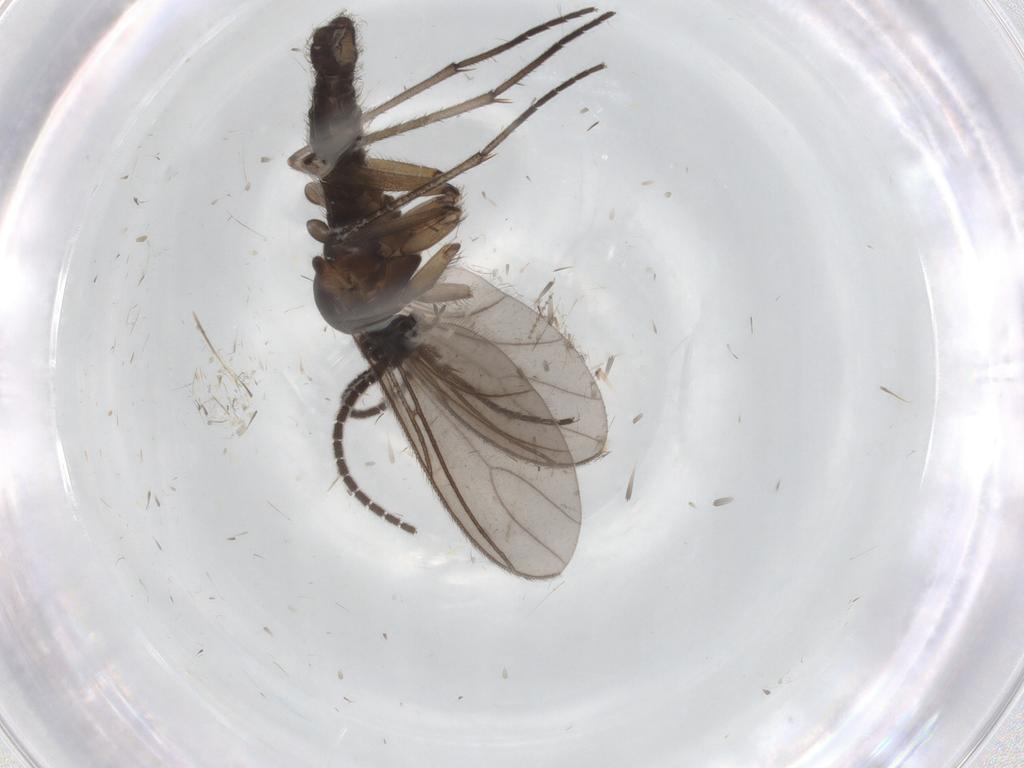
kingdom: Animalia
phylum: Arthropoda
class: Insecta
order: Diptera
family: Sciaridae
